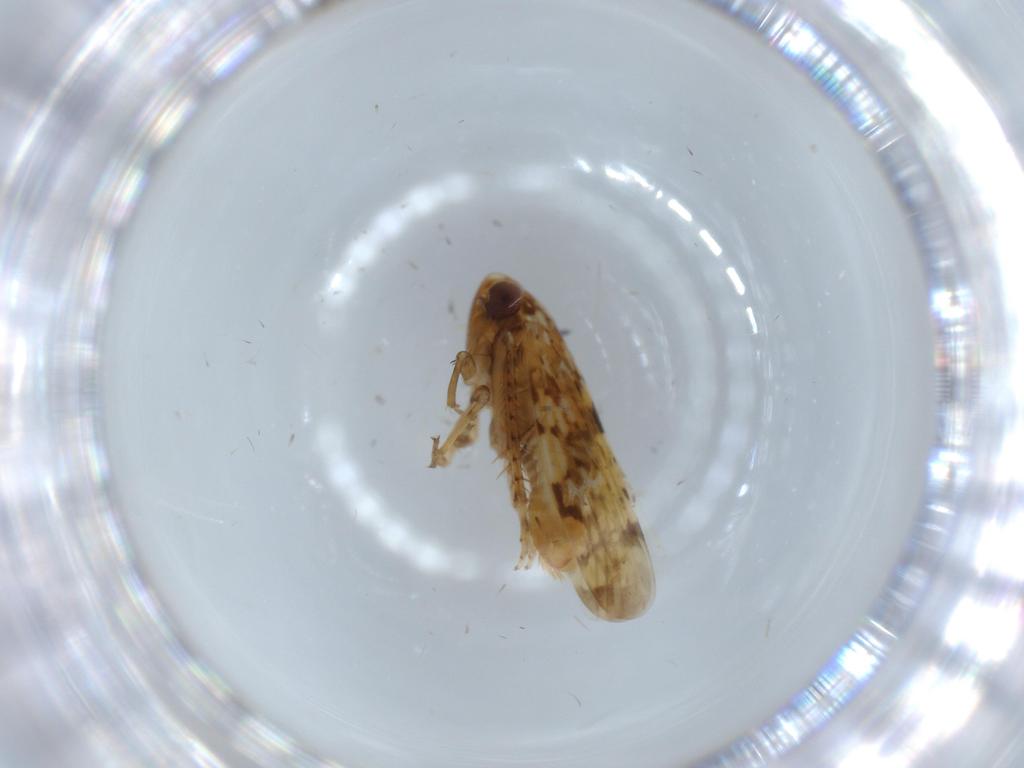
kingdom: Animalia
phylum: Arthropoda
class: Insecta
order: Hemiptera
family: Cicadellidae
